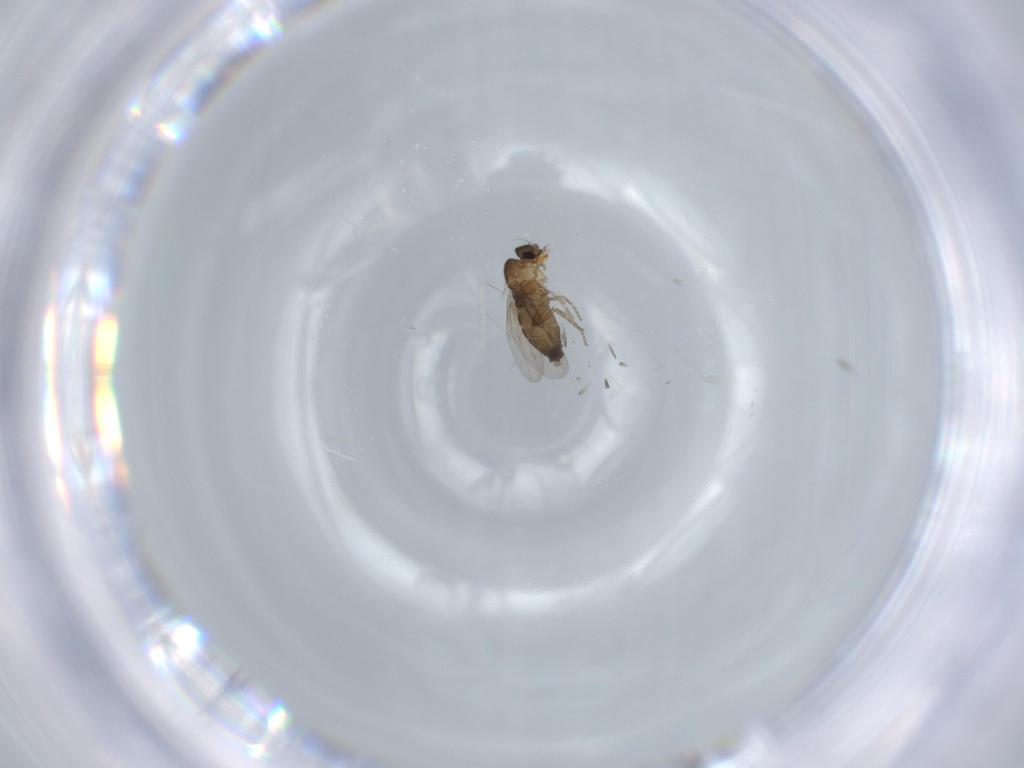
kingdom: Animalia
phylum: Arthropoda
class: Insecta
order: Diptera
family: Phoridae
